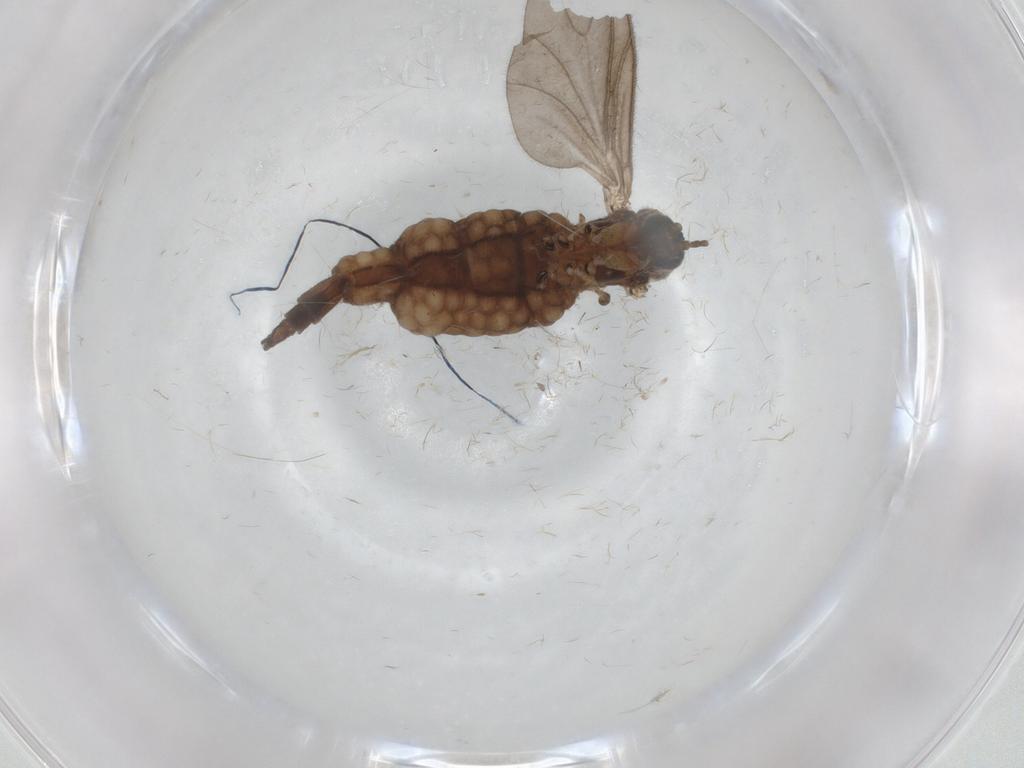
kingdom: Animalia
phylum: Arthropoda
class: Insecta
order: Diptera
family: Sciaridae
